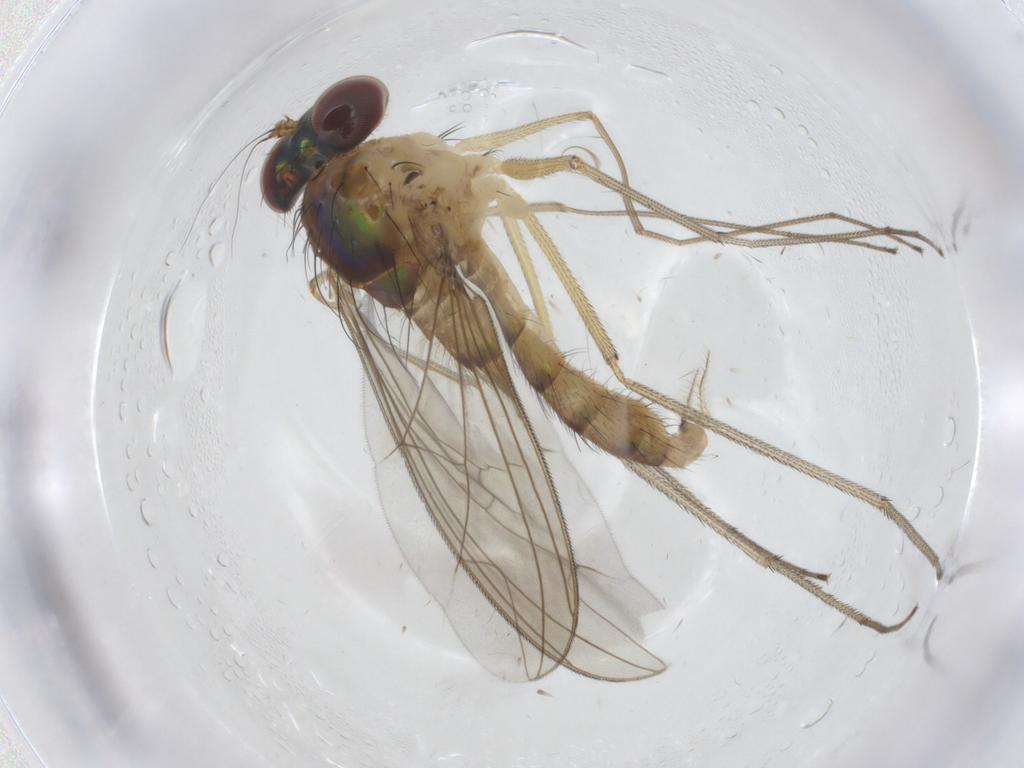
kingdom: Animalia
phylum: Arthropoda
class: Insecta
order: Diptera
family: Dolichopodidae
